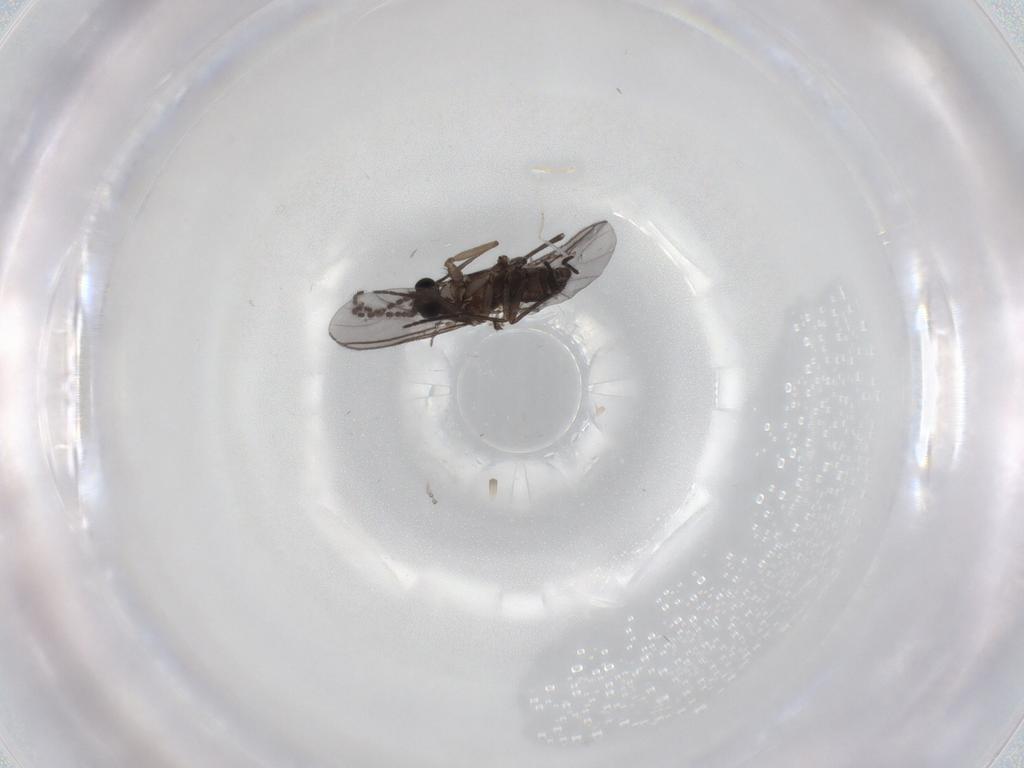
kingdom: Animalia
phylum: Arthropoda
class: Insecta
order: Diptera
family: Sciaridae
